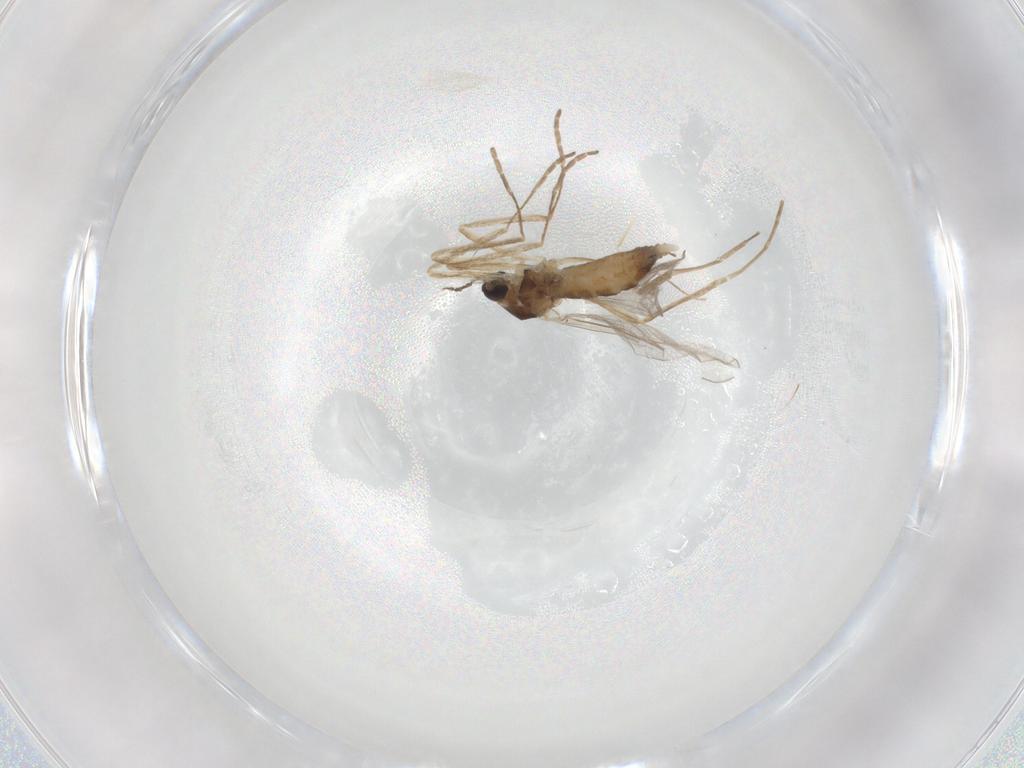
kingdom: Animalia
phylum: Arthropoda
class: Insecta
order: Diptera
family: Cecidomyiidae
